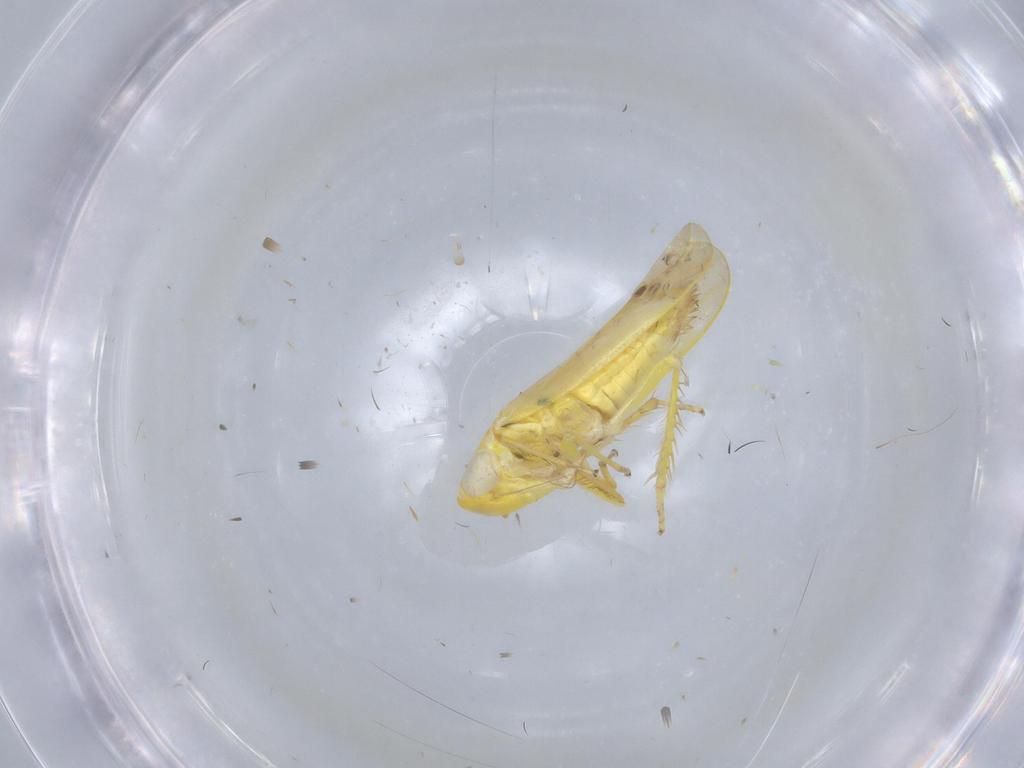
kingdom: Animalia
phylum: Arthropoda
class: Insecta
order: Hemiptera
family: Cicadellidae
